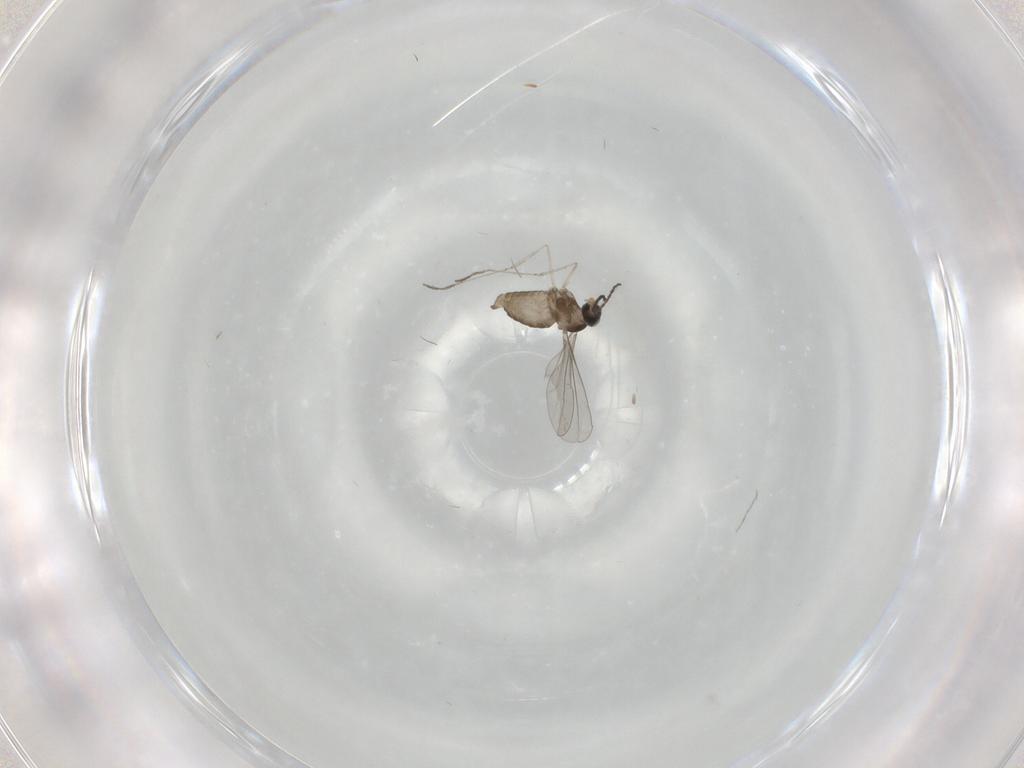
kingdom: Animalia
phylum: Arthropoda
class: Insecta
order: Diptera
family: Cecidomyiidae
